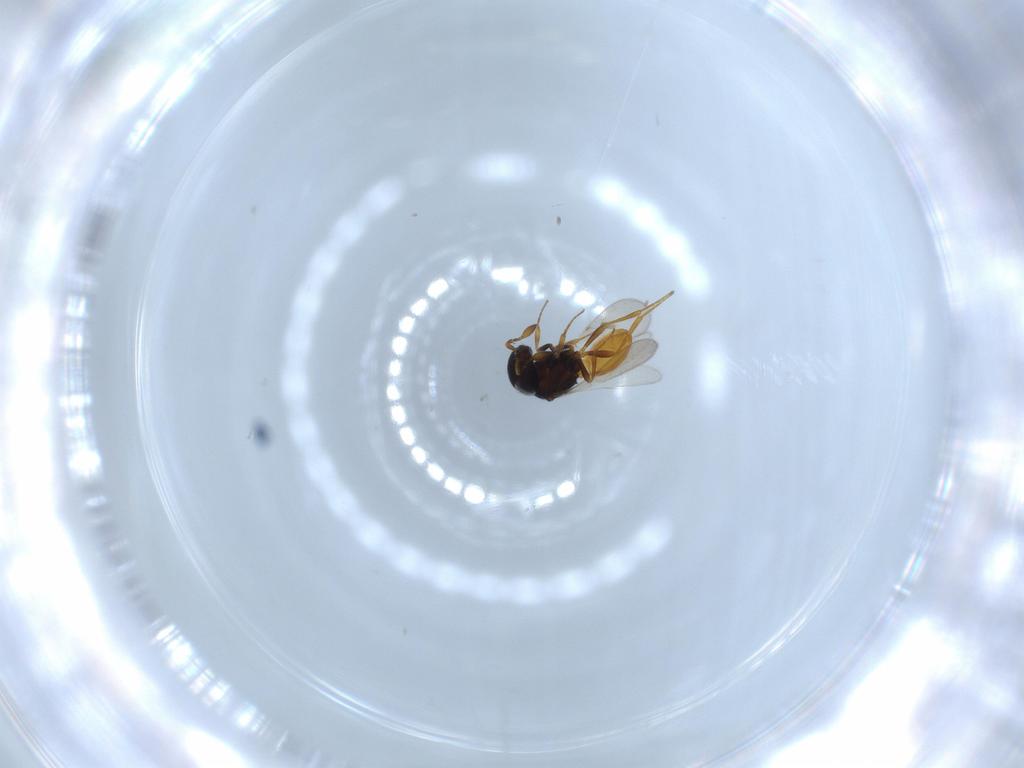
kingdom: Animalia
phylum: Arthropoda
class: Insecta
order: Hymenoptera
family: Scelionidae
